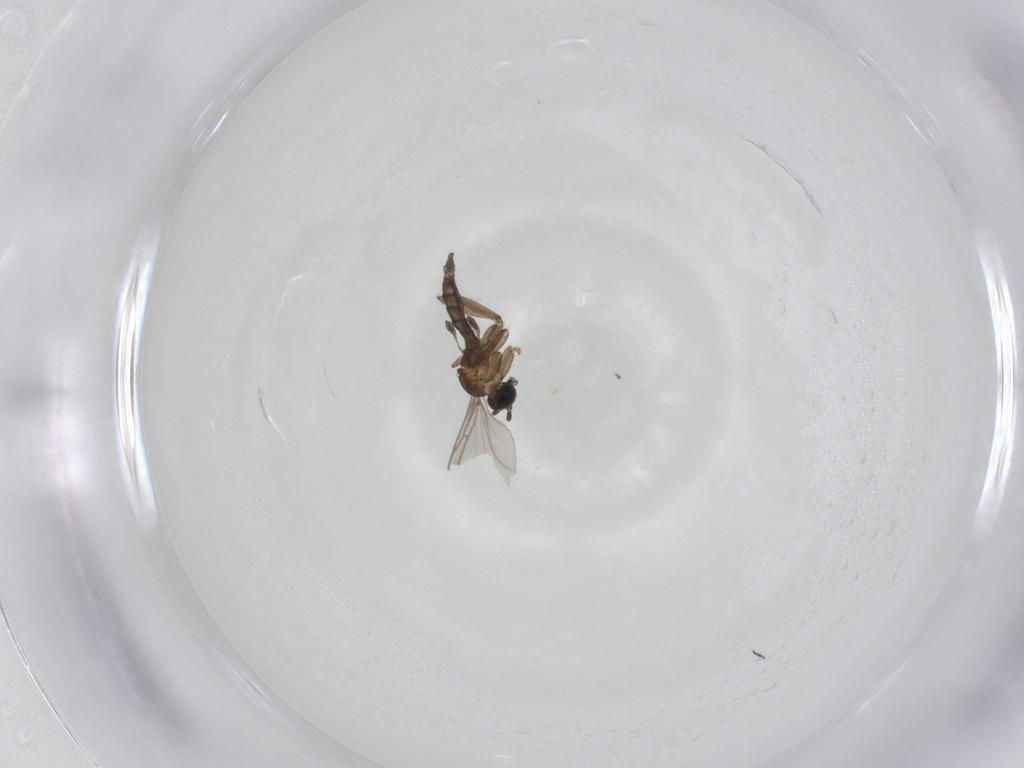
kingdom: Animalia
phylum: Arthropoda
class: Insecta
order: Diptera
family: Sciaridae
